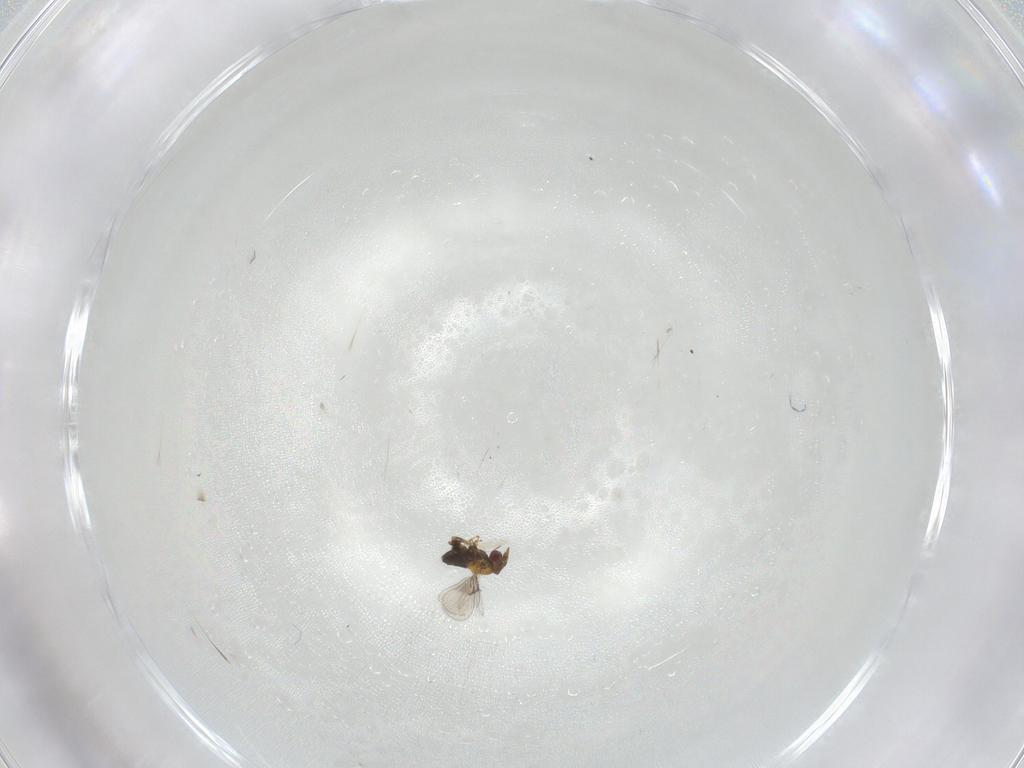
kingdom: Animalia
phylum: Arthropoda
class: Insecta
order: Hymenoptera
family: Trichogrammatidae
